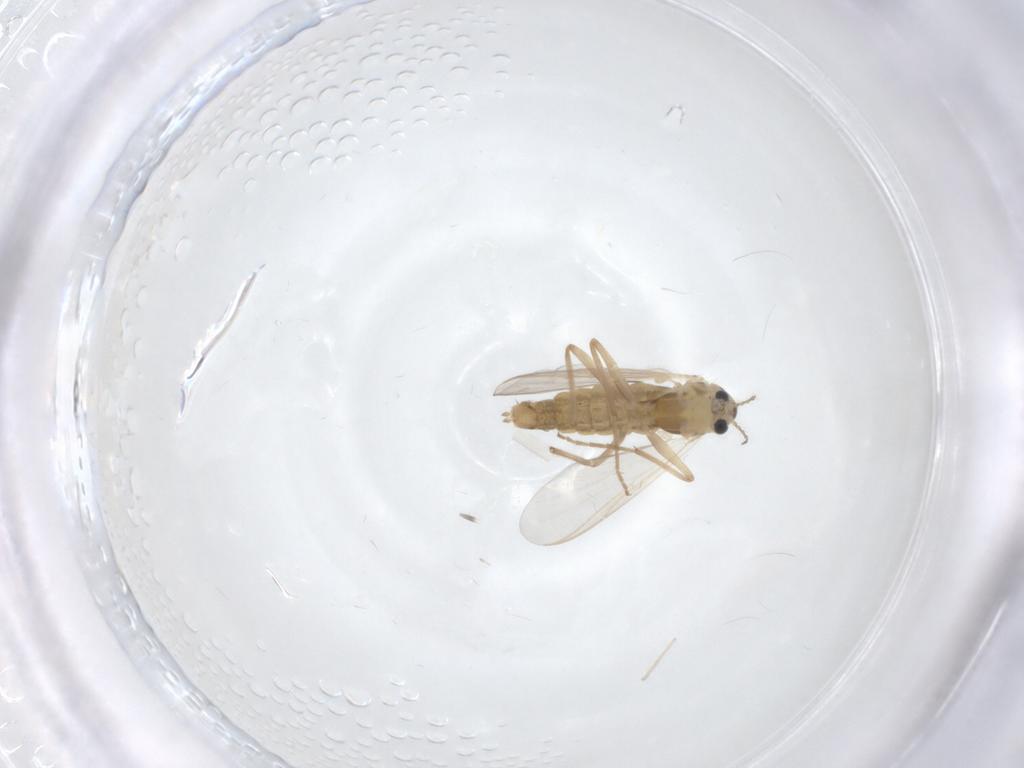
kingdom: Animalia
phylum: Arthropoda
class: Insecta
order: Diptera
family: Chironomidae
